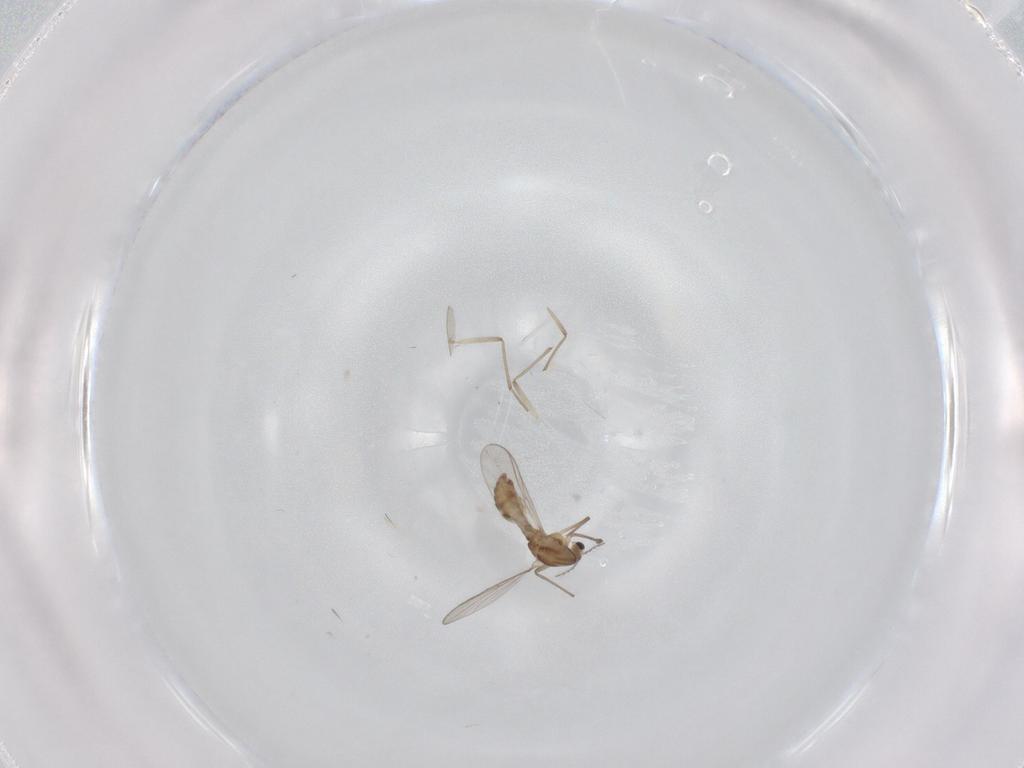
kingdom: Animalia
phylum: Arthropoda
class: Insecta
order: Diptera
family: Chironomidae
